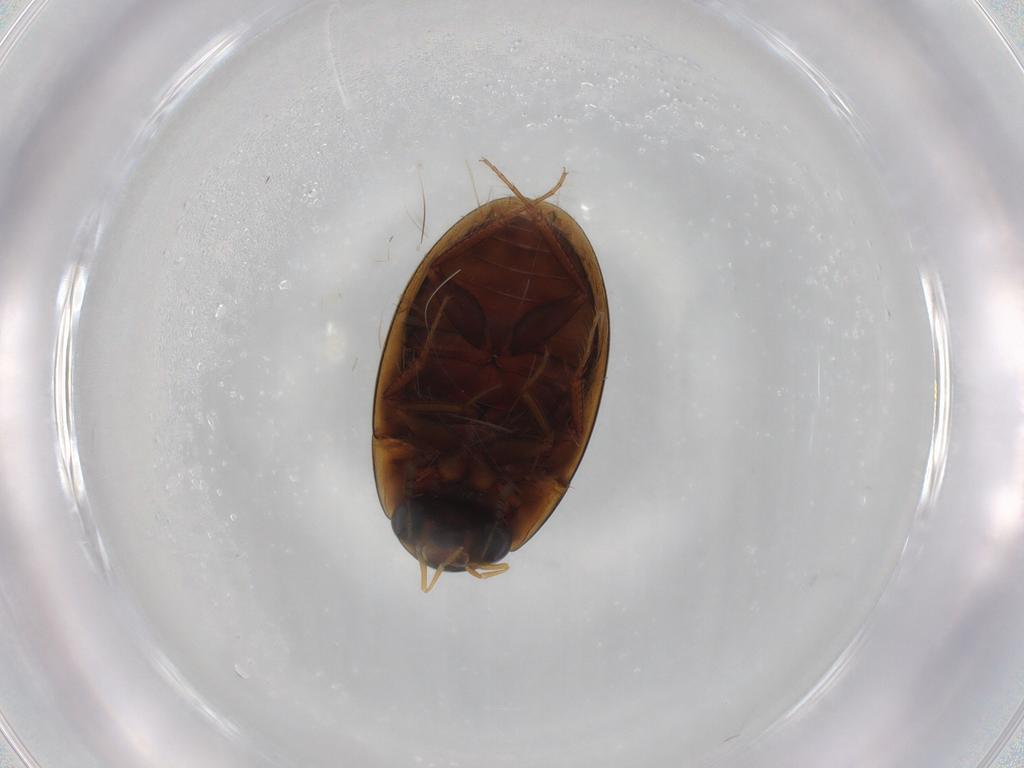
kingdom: Animalia
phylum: Arthropoda
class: Insecta
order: Coleoptera
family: Hydrophilidae
